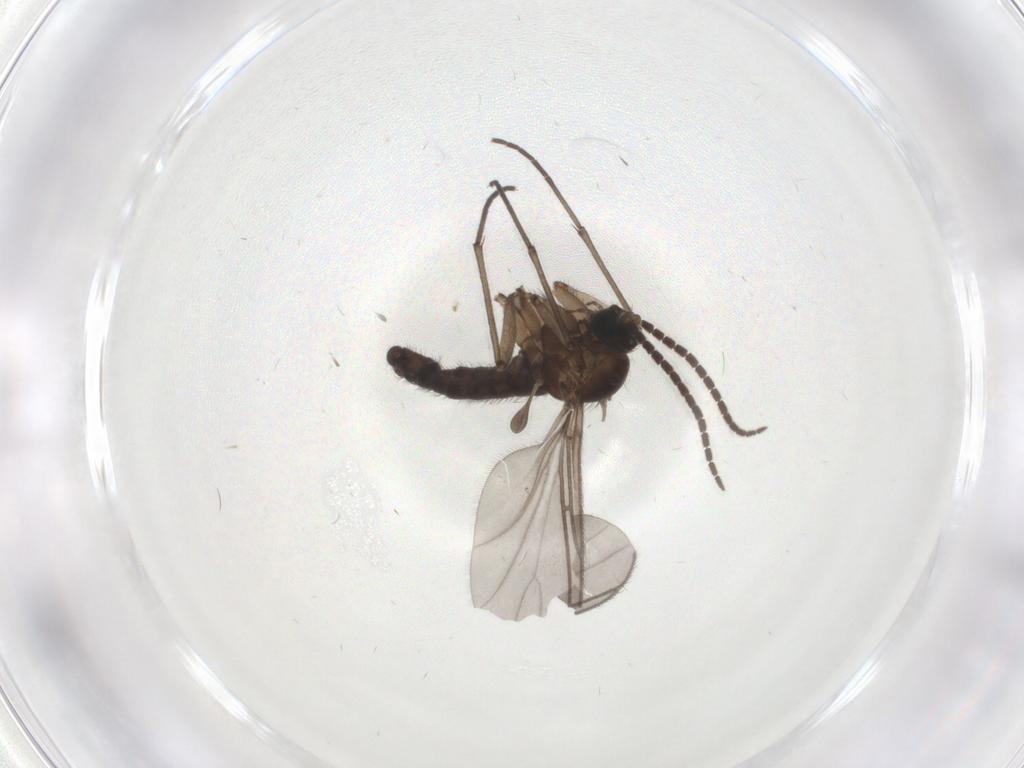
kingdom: Animalia
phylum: Arthropoda
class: Insecta
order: Diptera
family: Sciaridae
